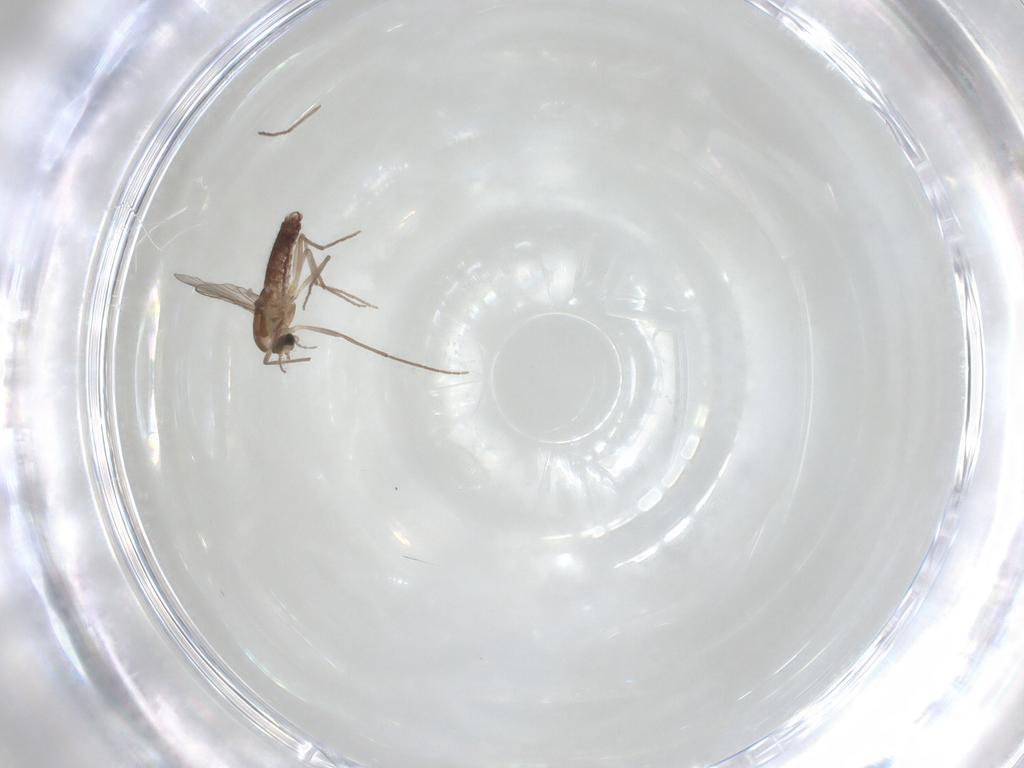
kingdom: Animalia
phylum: Arthropoda
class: Insecta
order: Diptera
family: Chironomidae
